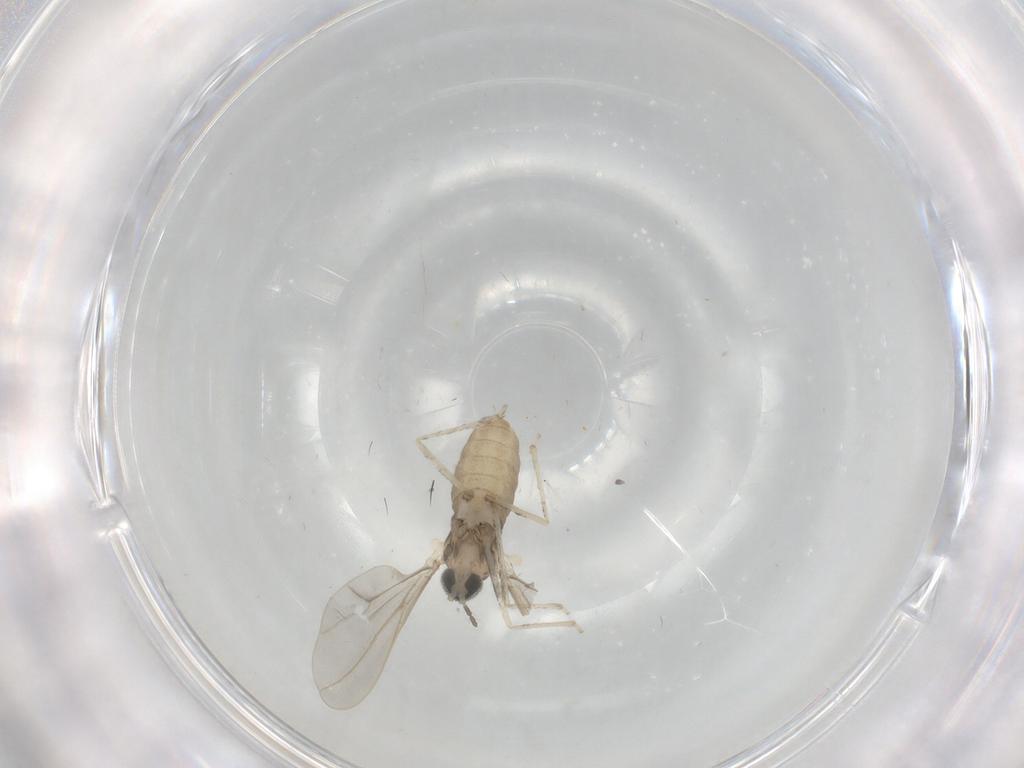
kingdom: Animalia
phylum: Arthropoda
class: Insecta
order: Diptera
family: Cecidomyiidae
